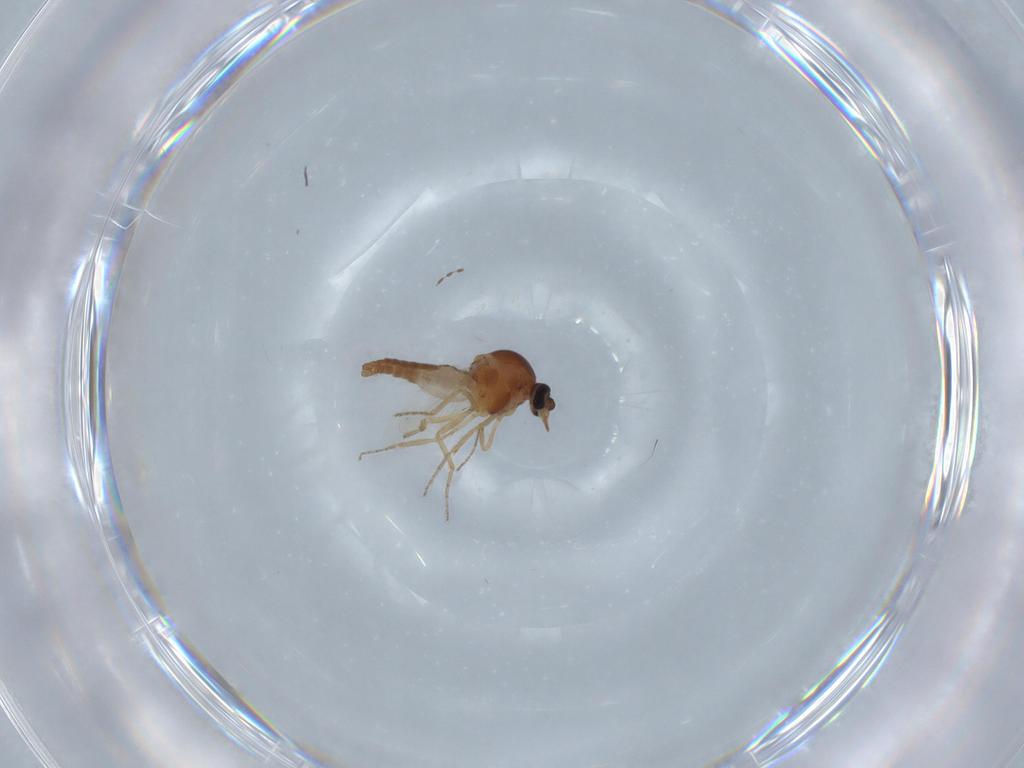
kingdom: Animalia
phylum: Arthropoda
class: Insecta
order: Diptera
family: Ceratopogonidae
